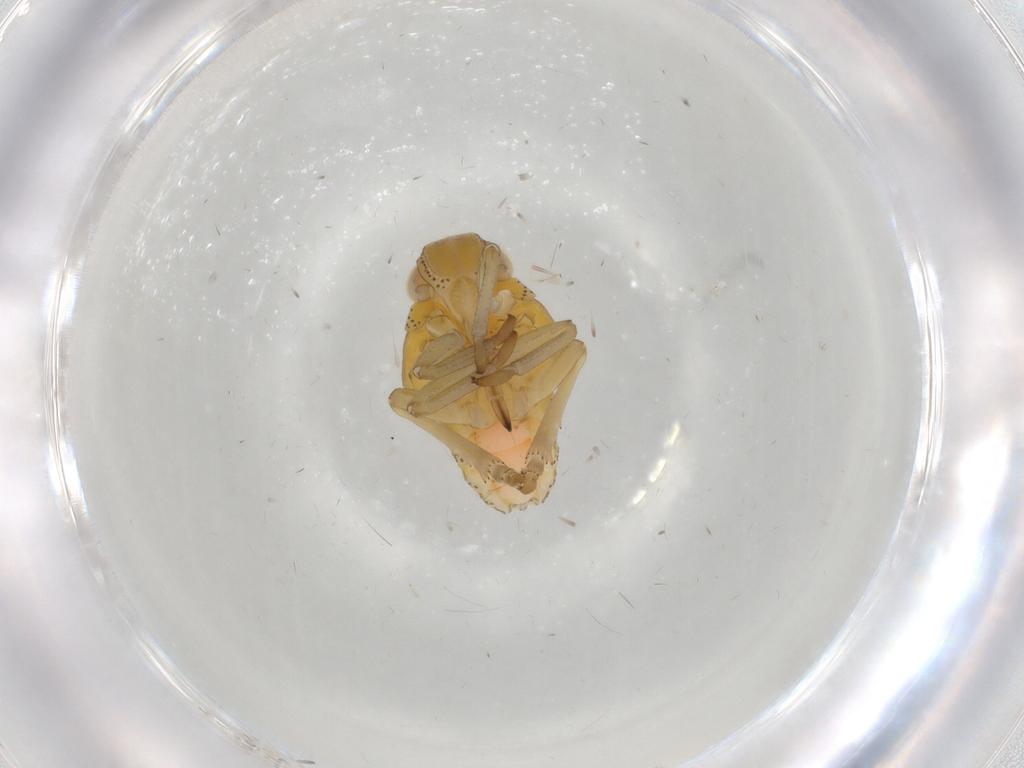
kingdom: Animalia
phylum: Arthropoda
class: Insecta
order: Hemiptera
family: Tropiduchidae
